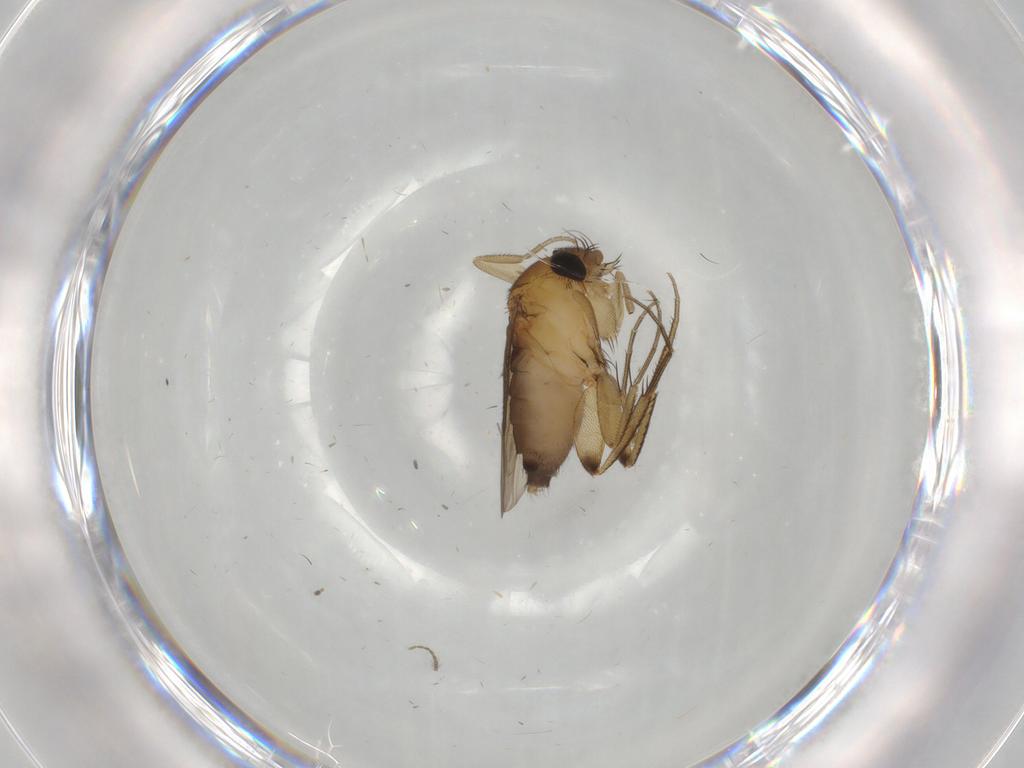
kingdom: Animalia
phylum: Arthropoda
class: Insecta
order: Diptera
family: Phoridae
